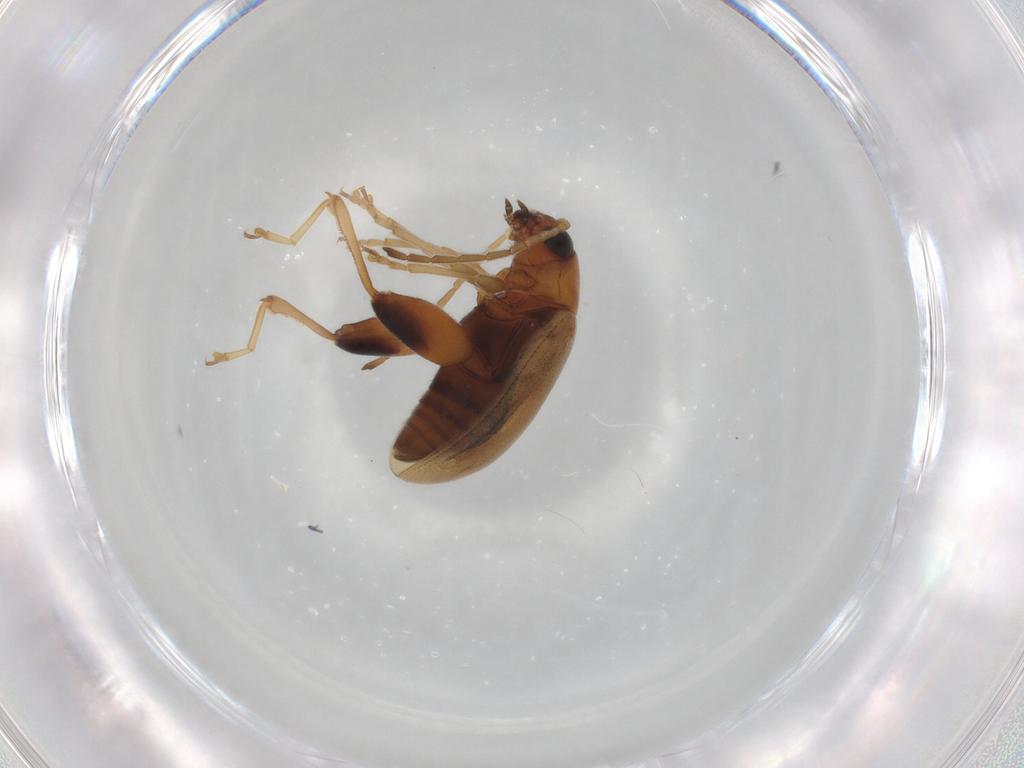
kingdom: Animalia
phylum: Arthropoda
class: Insecta
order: Coleoptera
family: Chrysomelidae
